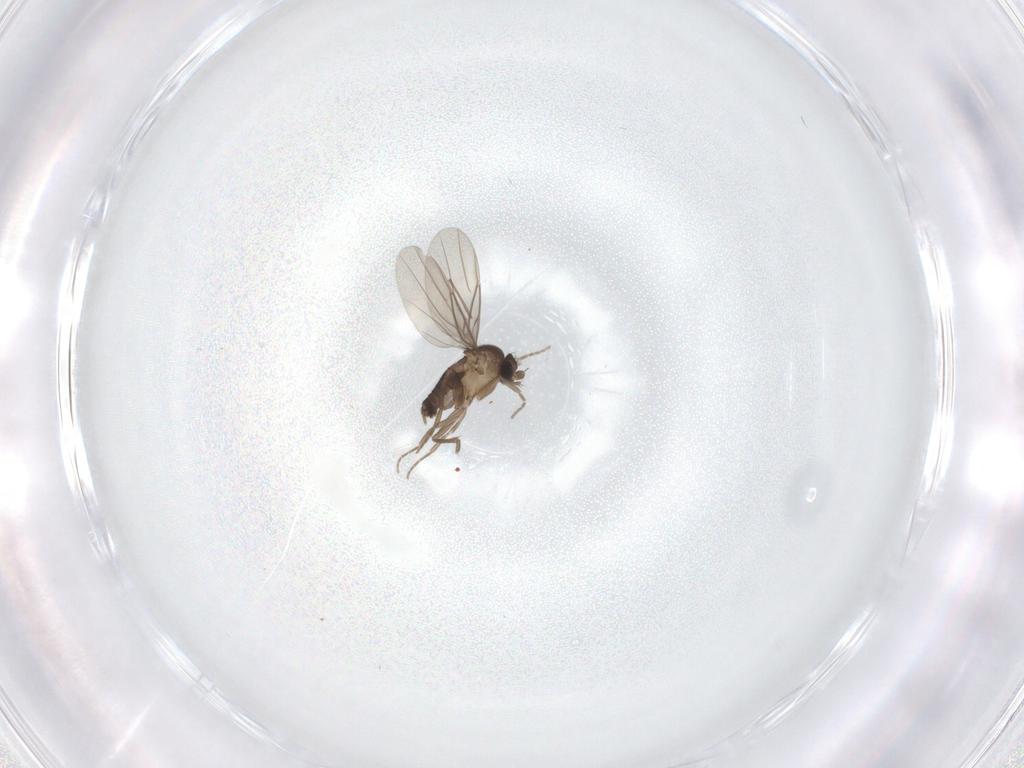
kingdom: Animalia
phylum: Arthropoda
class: Insecta
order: Diptera
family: Phoridae
